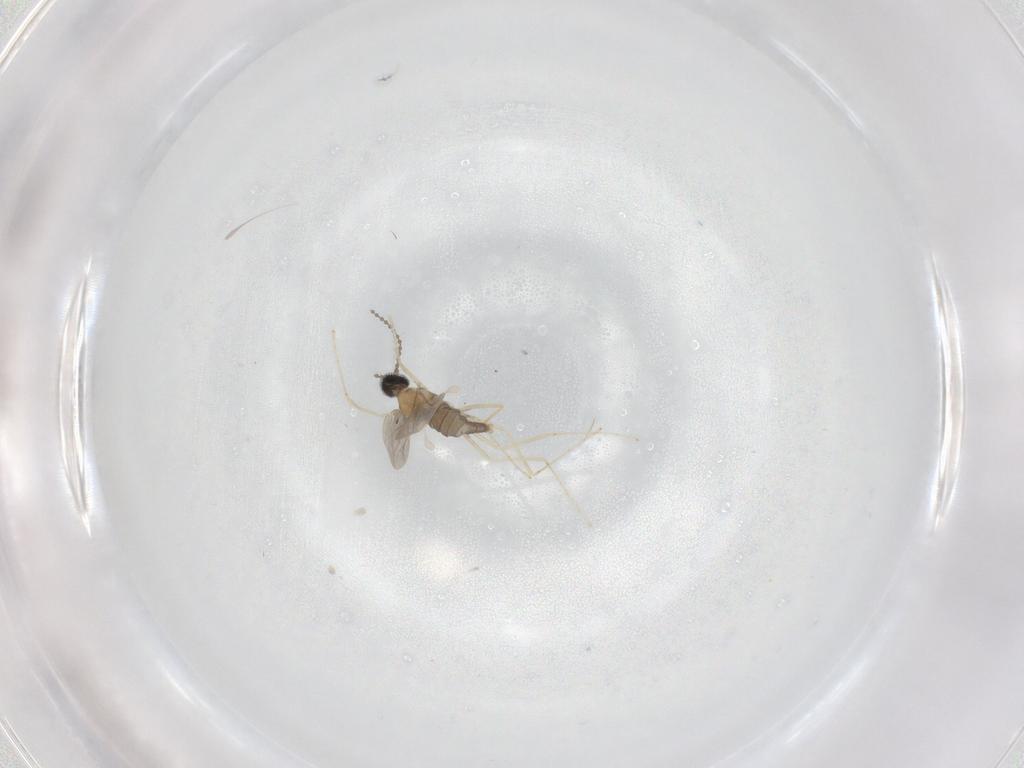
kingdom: Animalia
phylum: Arthropoda
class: Insecta
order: Diptera
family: Cecidomyiidae
